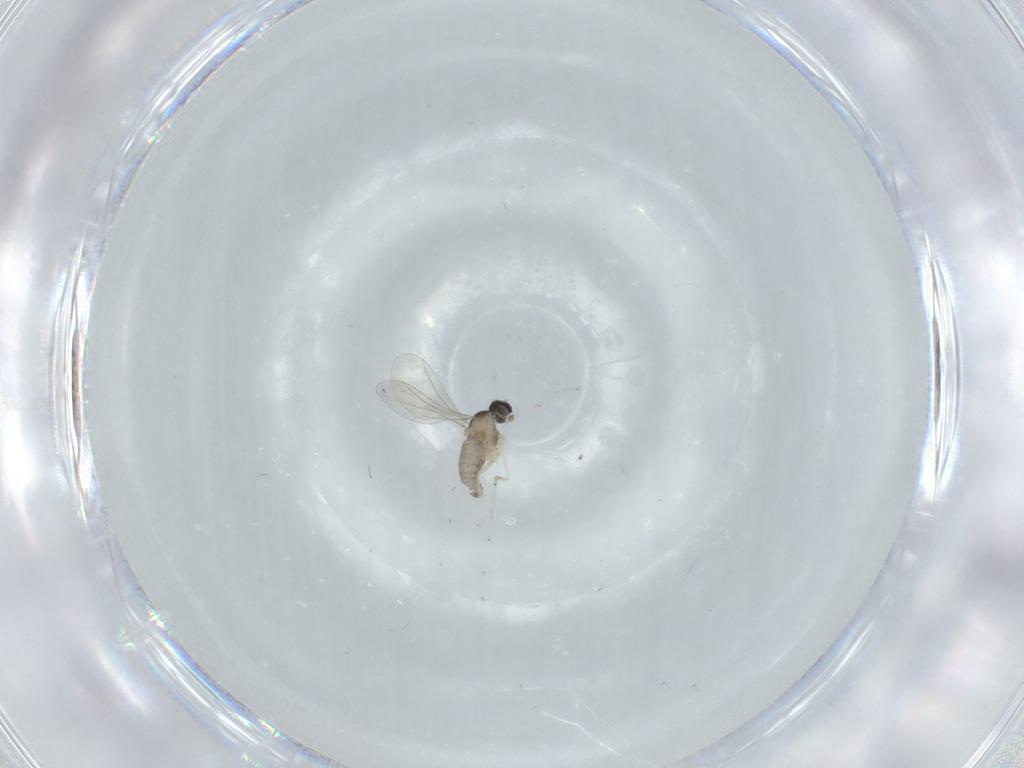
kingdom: Animalia
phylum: Arthropoda
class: Insecta
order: Diptera
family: Cecidomyiidae
